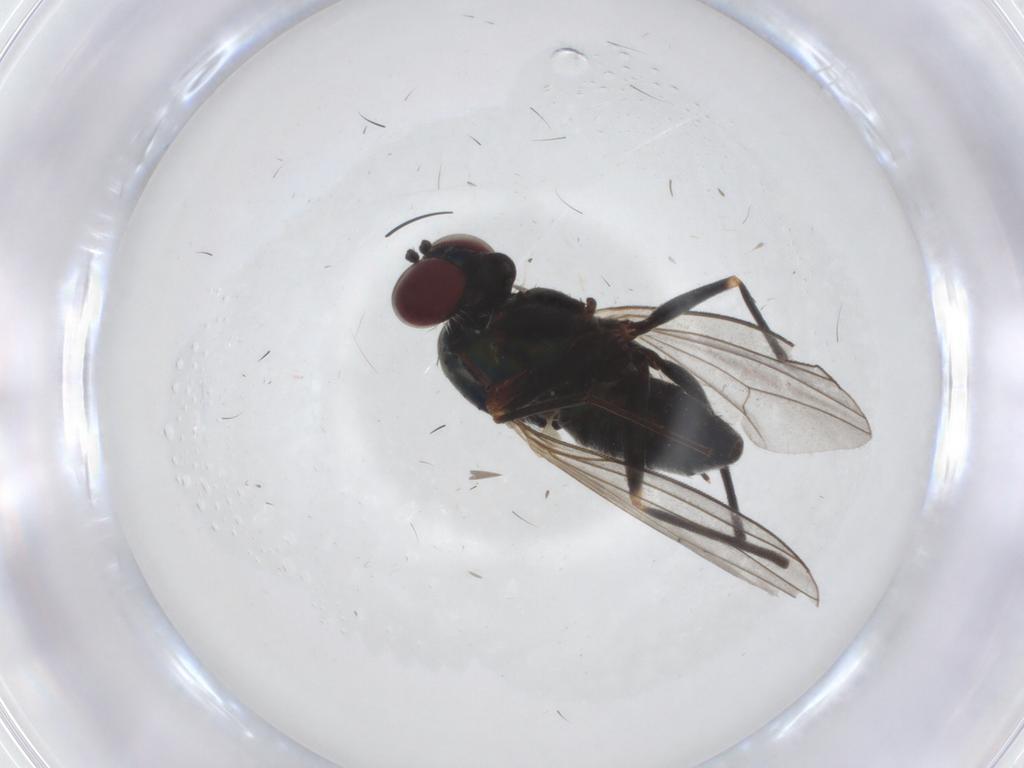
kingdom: Animalia
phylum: Arthropoda
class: Insecta
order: Diptera
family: Dolichopodidae
